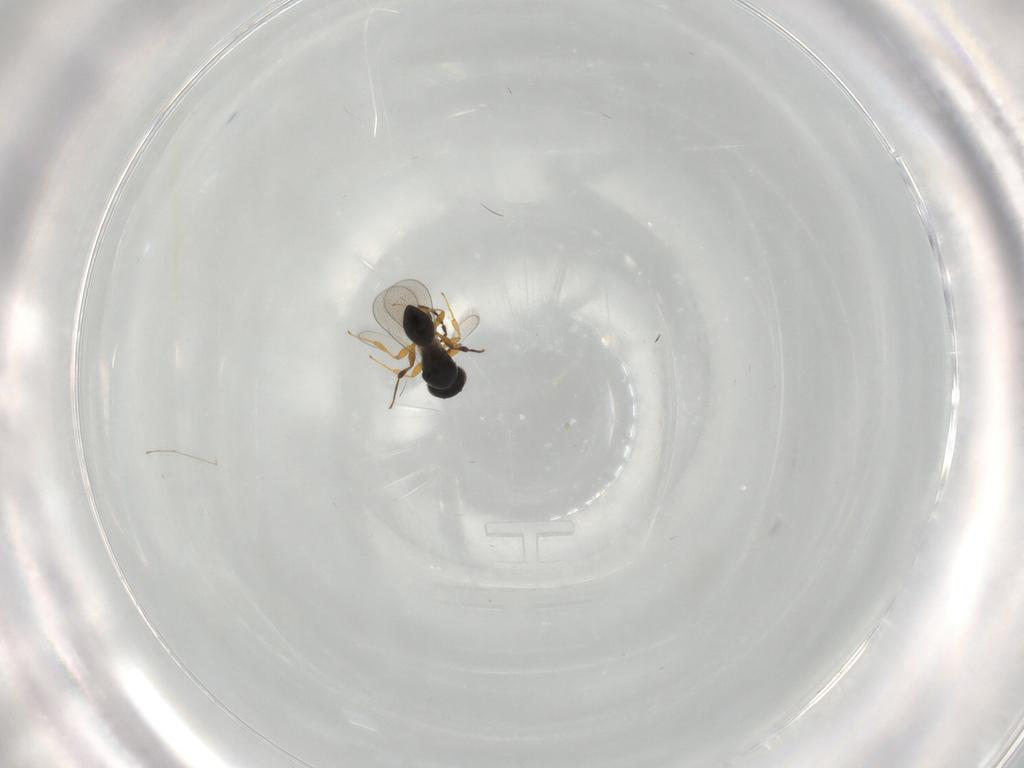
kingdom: Animalia
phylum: Arthropoda
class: Insecta
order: Hymenoptera
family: Platygastridae
